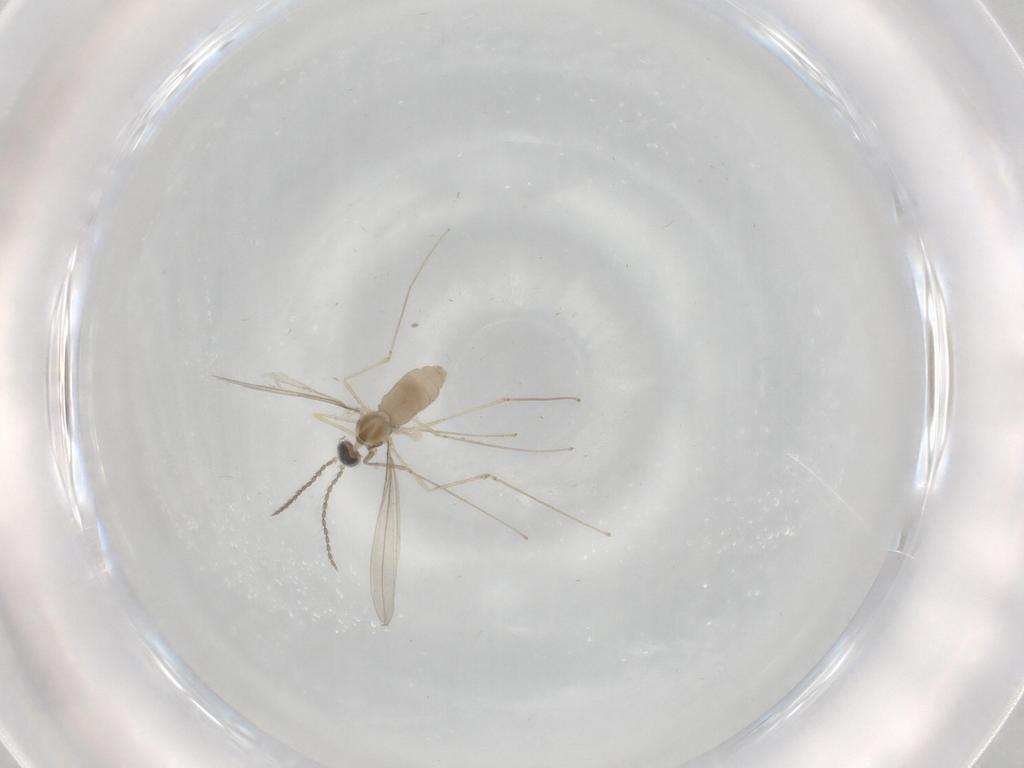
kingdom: Animalia
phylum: Arthropoda
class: Insecta
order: Diptera
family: Cecidomyiidae
